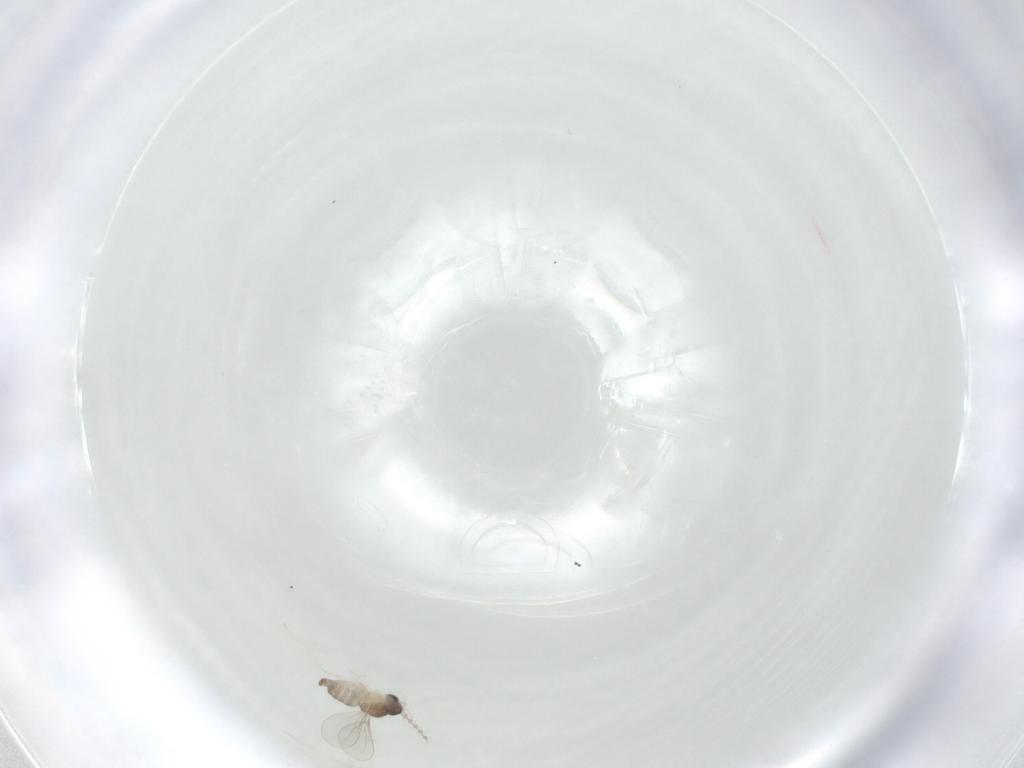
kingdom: Animalia
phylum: Arthropoda
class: Insecta
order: Diptera
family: Cecidomyiidae
